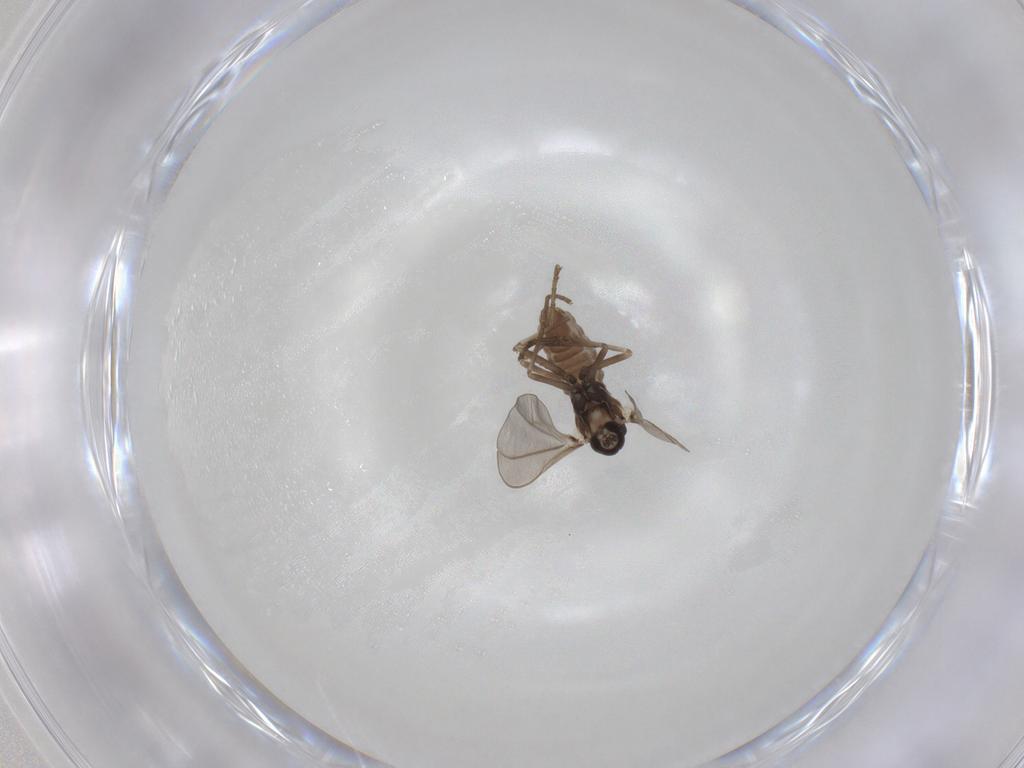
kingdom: Animalia
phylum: Arthropoda
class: Insecta
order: Diptera
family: Cecidomyiidae
